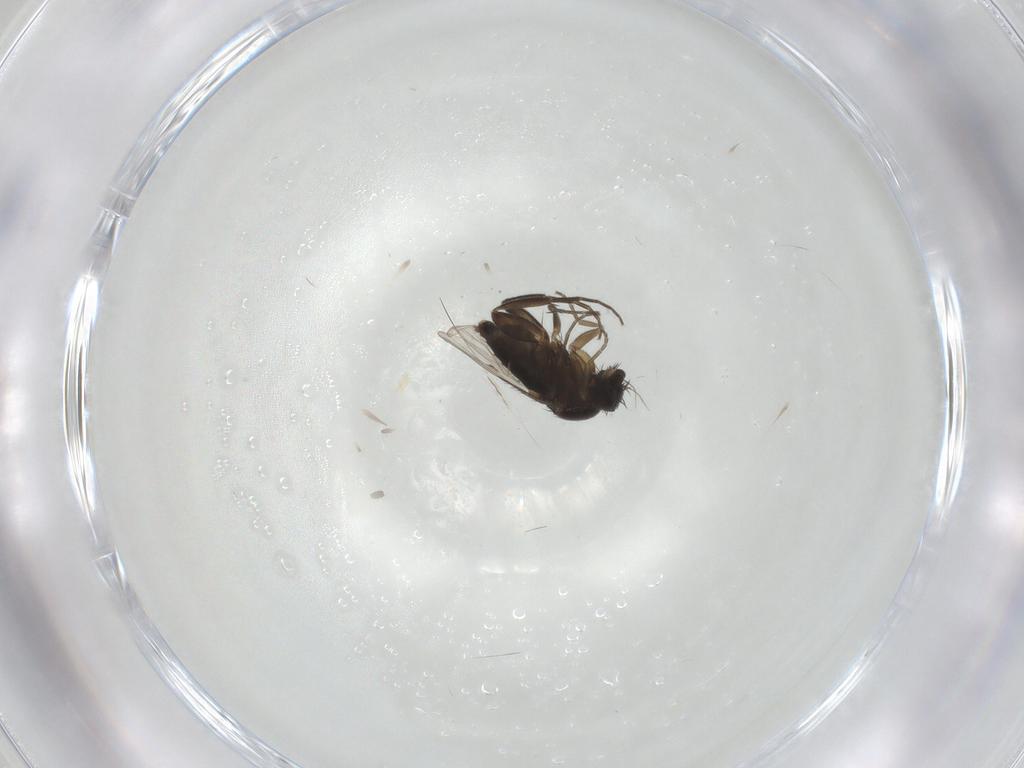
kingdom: Animalia
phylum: Arthropoda
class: Insecta
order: Diptera
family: Phoridae
